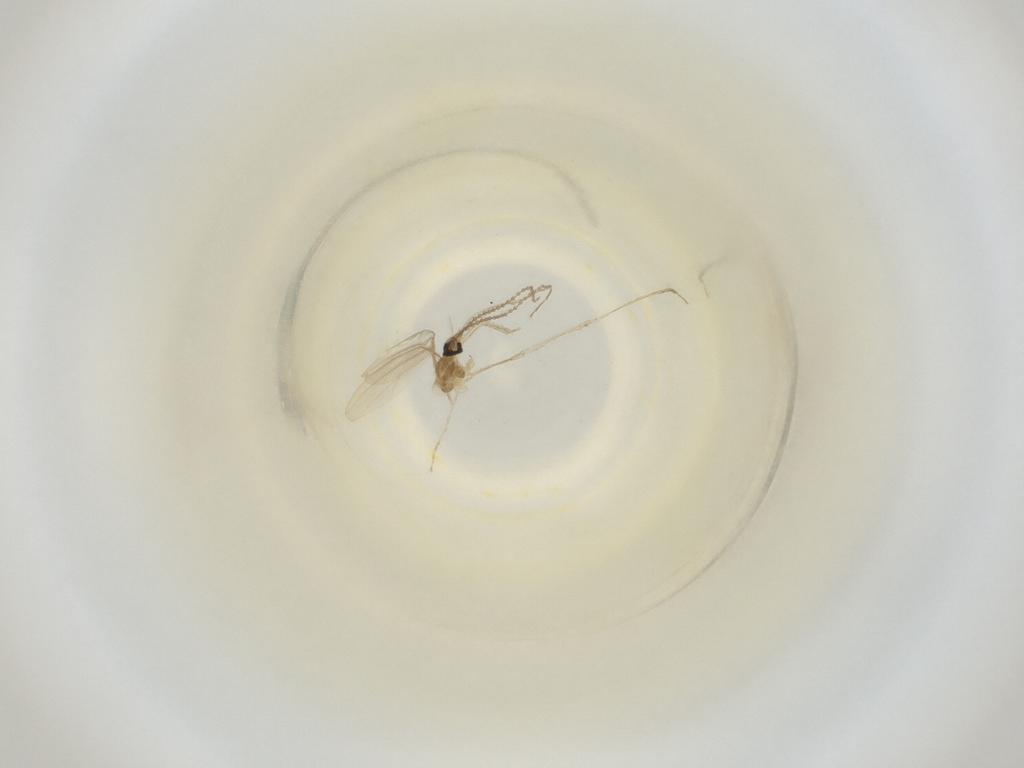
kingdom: Animalia
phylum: Arthropoda
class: Insecta
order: Diptera
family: Cecidomyiidae
